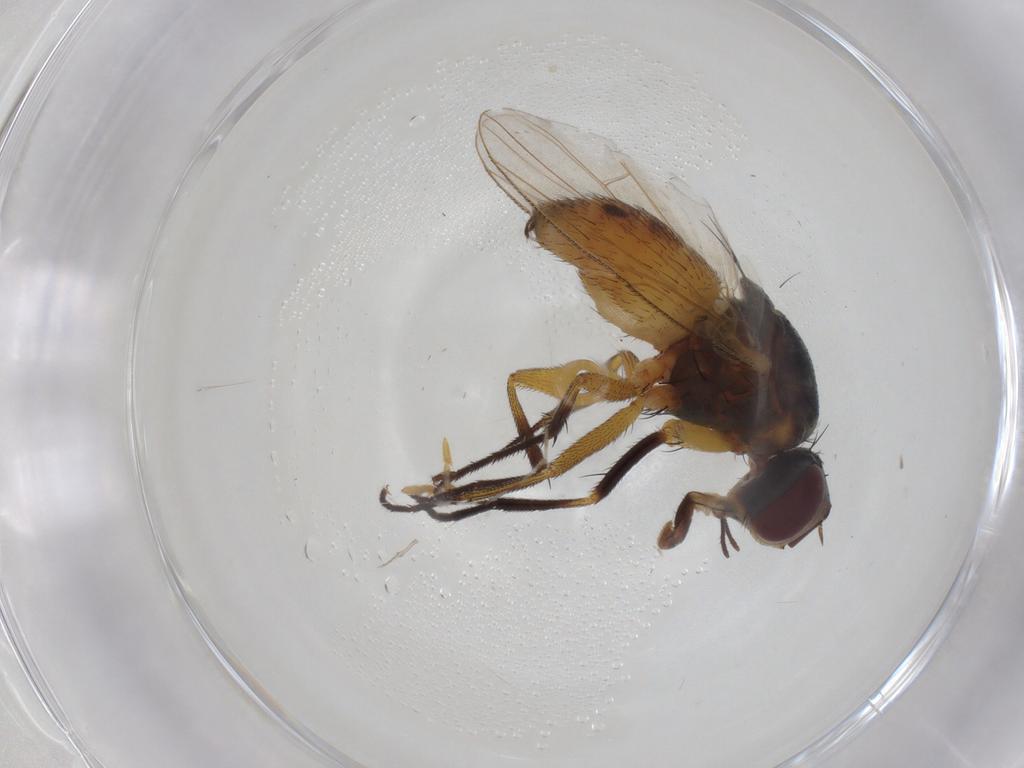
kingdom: Animalia
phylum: Arthropoda
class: Insecta
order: Diptera
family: Muscidae
